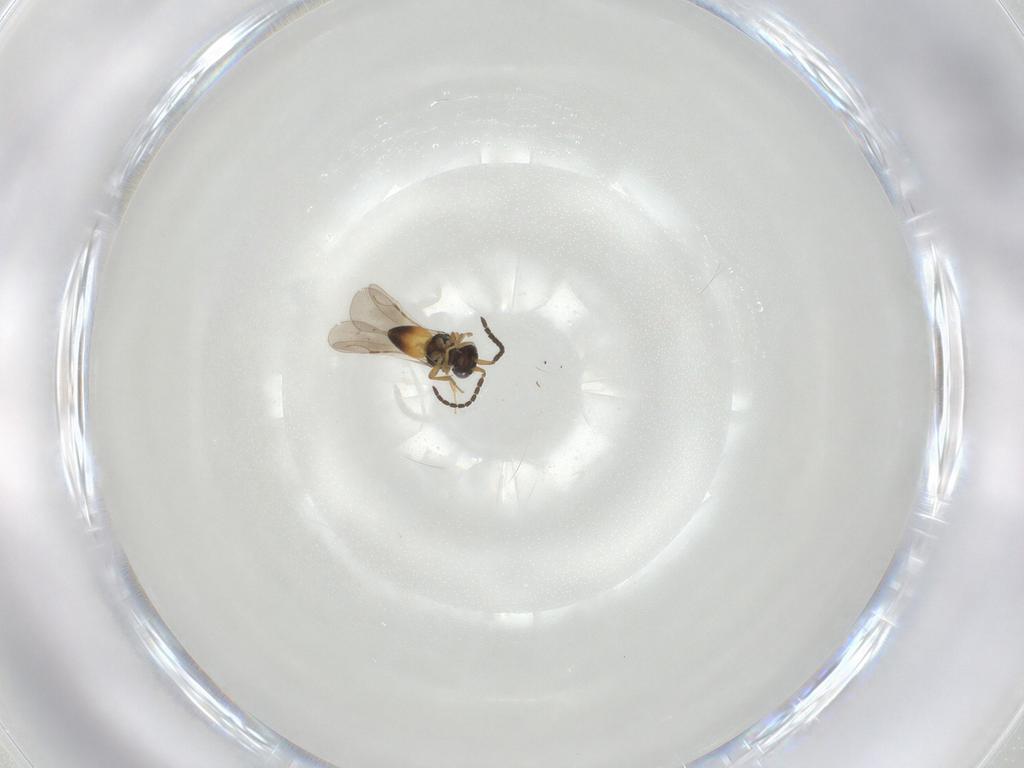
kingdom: Animalia
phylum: Arthropoda
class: Insecta
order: Hymenoptera
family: Ceraphronidae
